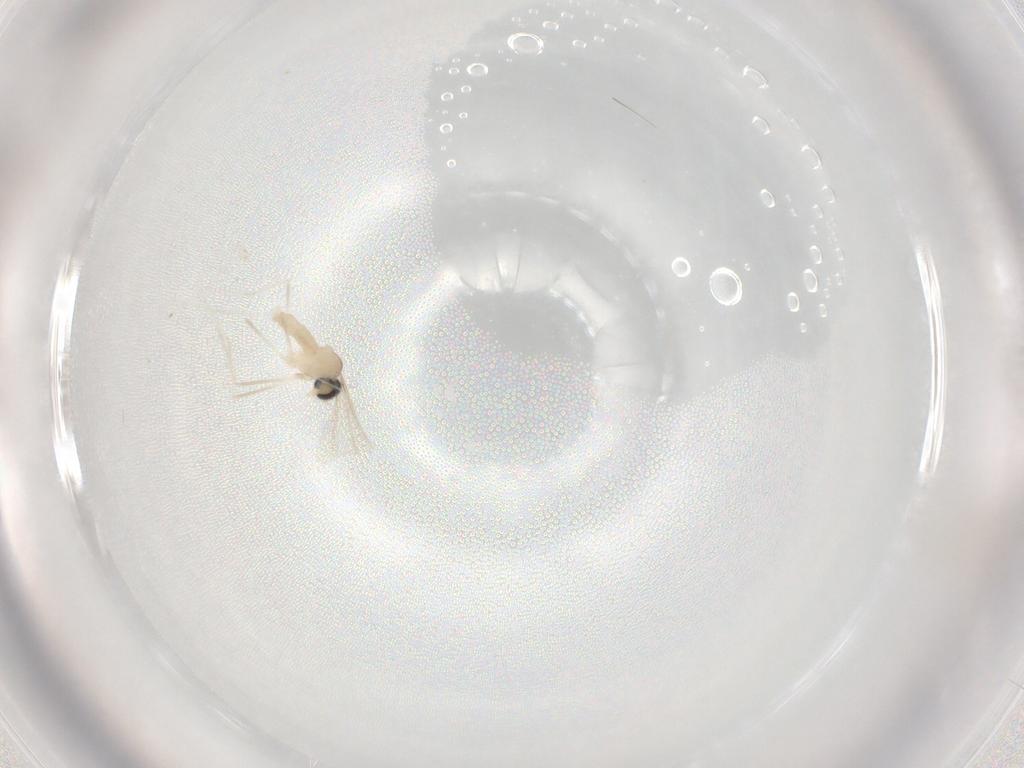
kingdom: Animalia
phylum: Arthropoda
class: Insecta
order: Diptera
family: Cecidomyiidae
